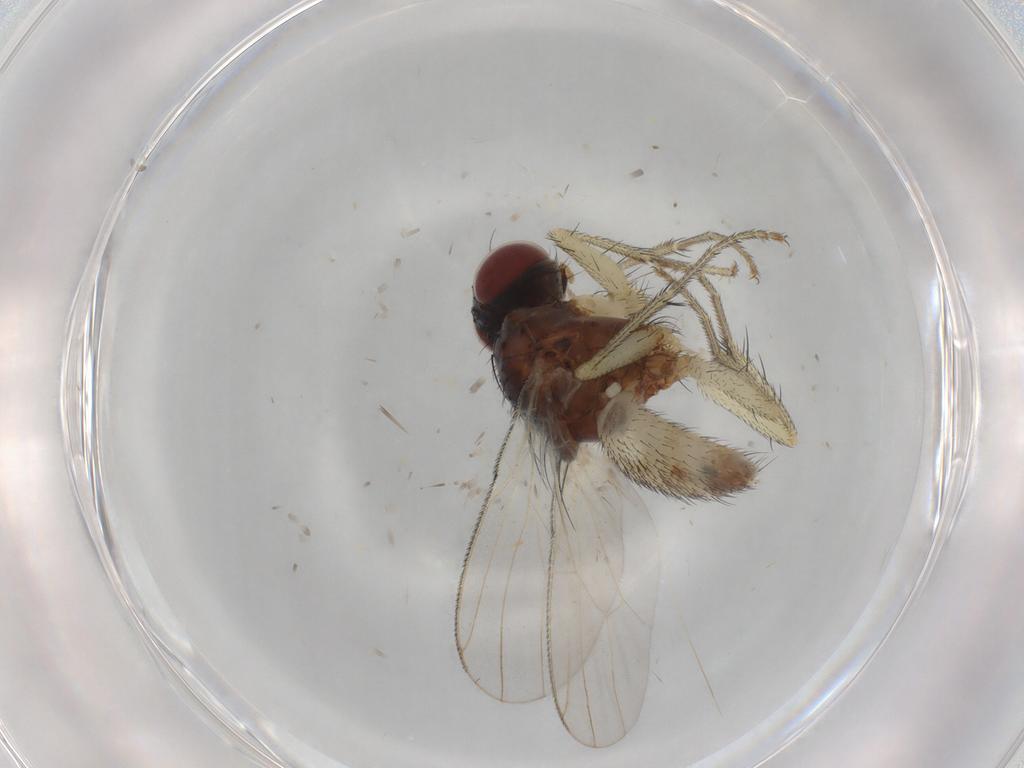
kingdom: Animalia
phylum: Arthropoda
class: Insecta
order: Diptera
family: Muscidae
